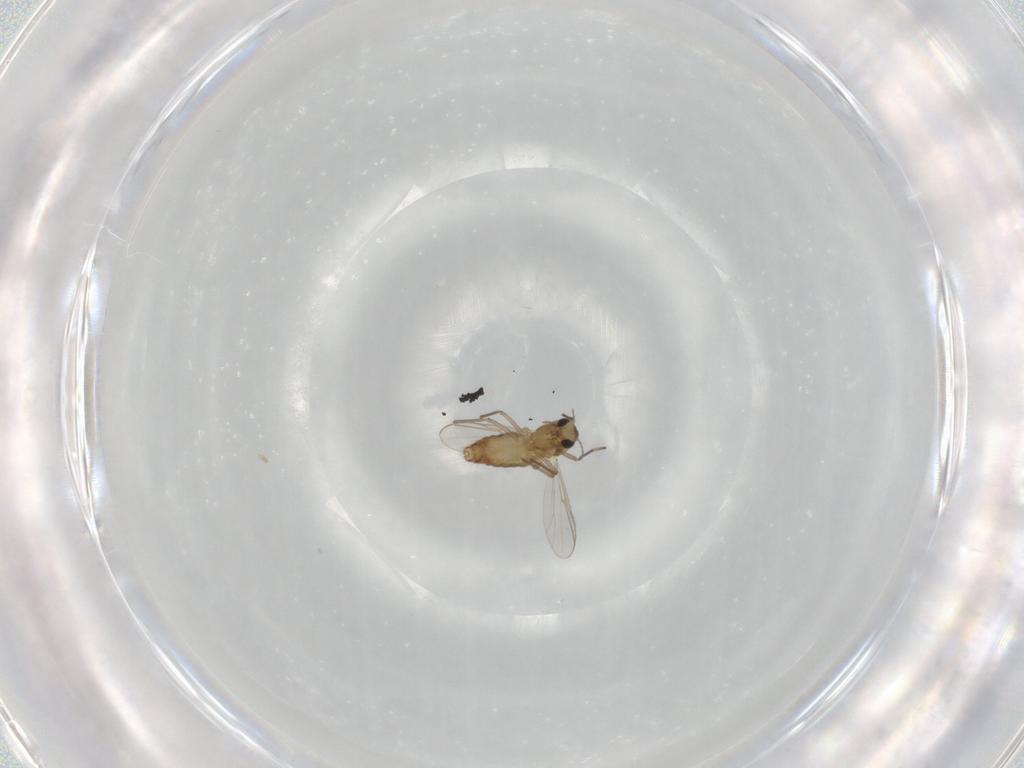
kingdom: Animalia
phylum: Arthropoda
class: Insecta
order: Diptera
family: Chironomidae
